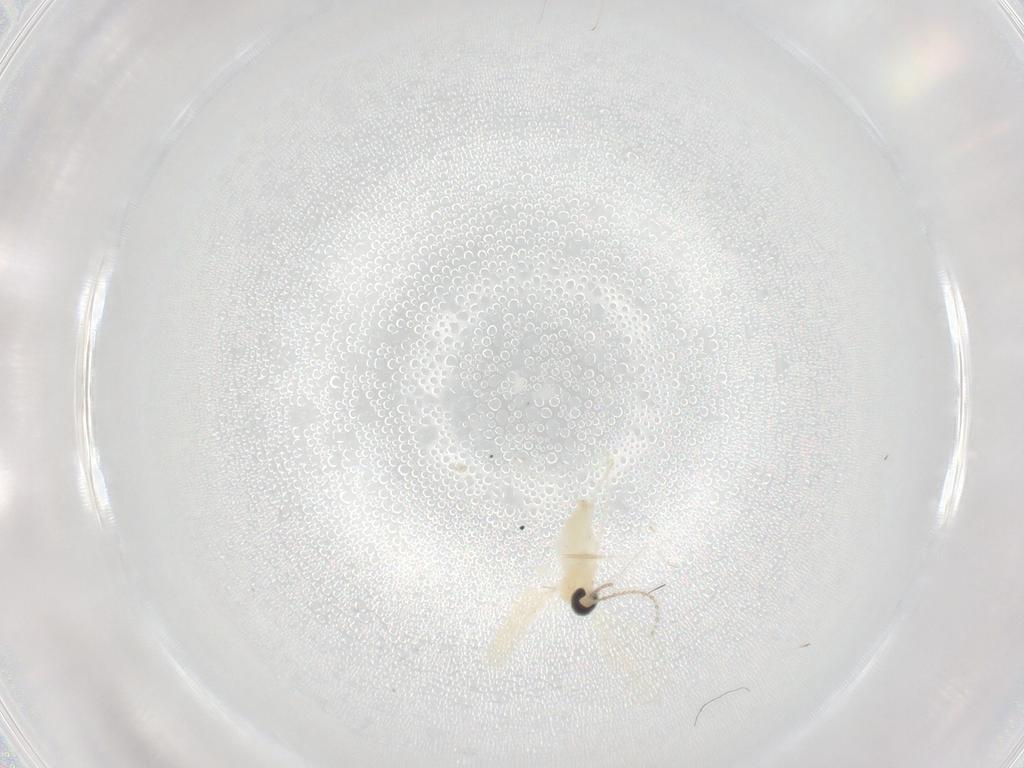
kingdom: Animalia
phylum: Arthropoda
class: Insecta
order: Diptera
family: Cecidomyiidae
